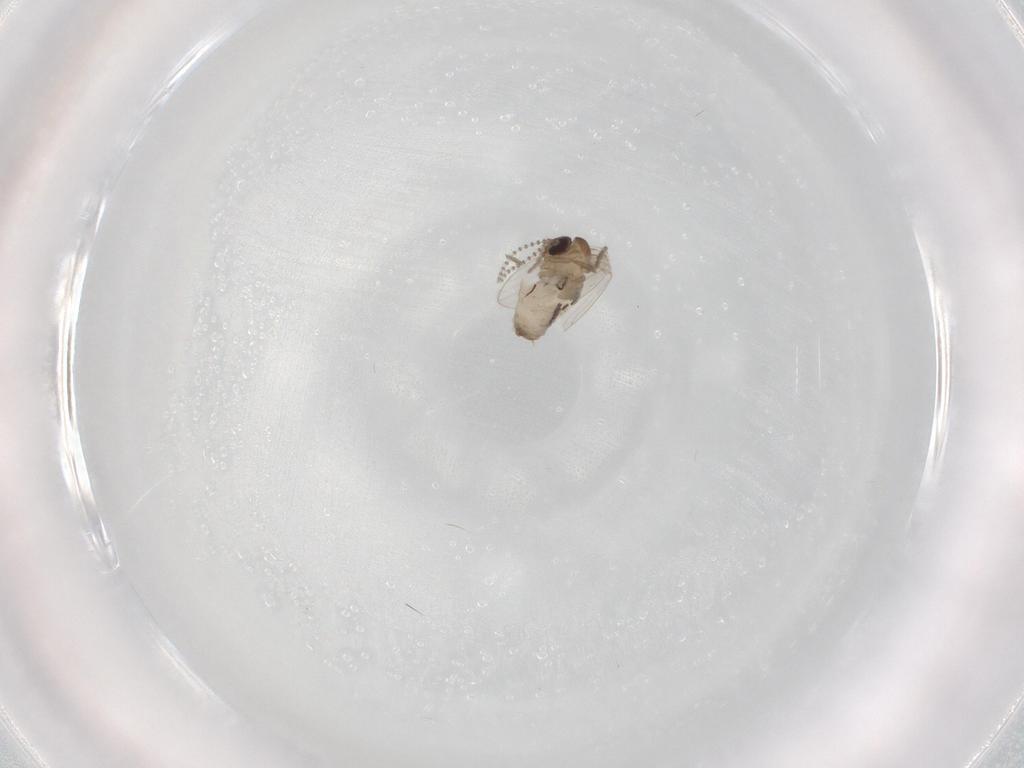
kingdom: Animalia
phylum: Arthropoda
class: Insecta
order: Diptera
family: Psychodidae
